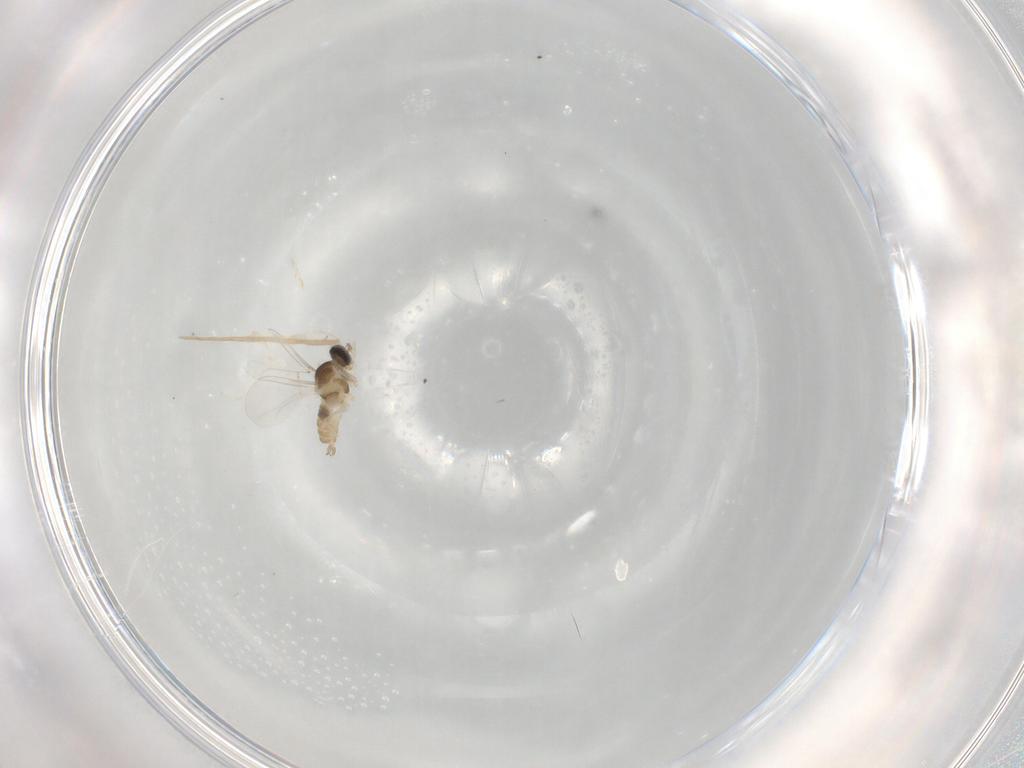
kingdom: Animalia
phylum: Arthropoda
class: Insecta
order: Diptera
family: Cecidomyiidae
